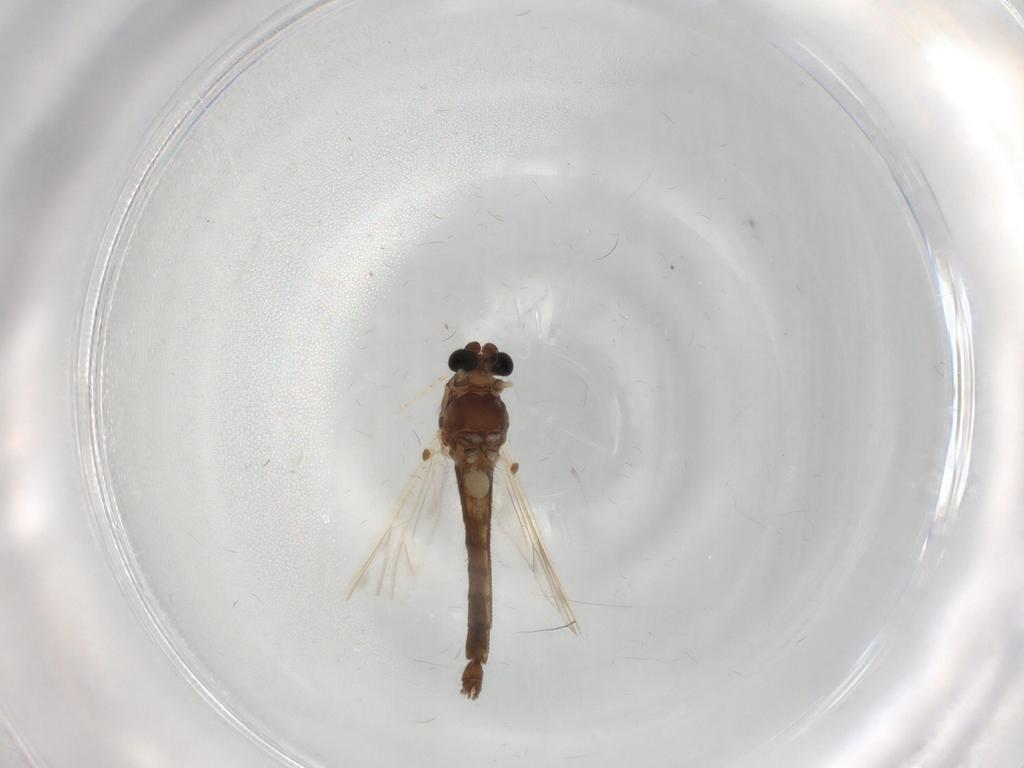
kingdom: Animalia
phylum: Arthropoda
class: Insecta
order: Diptera
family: Chironomidae
